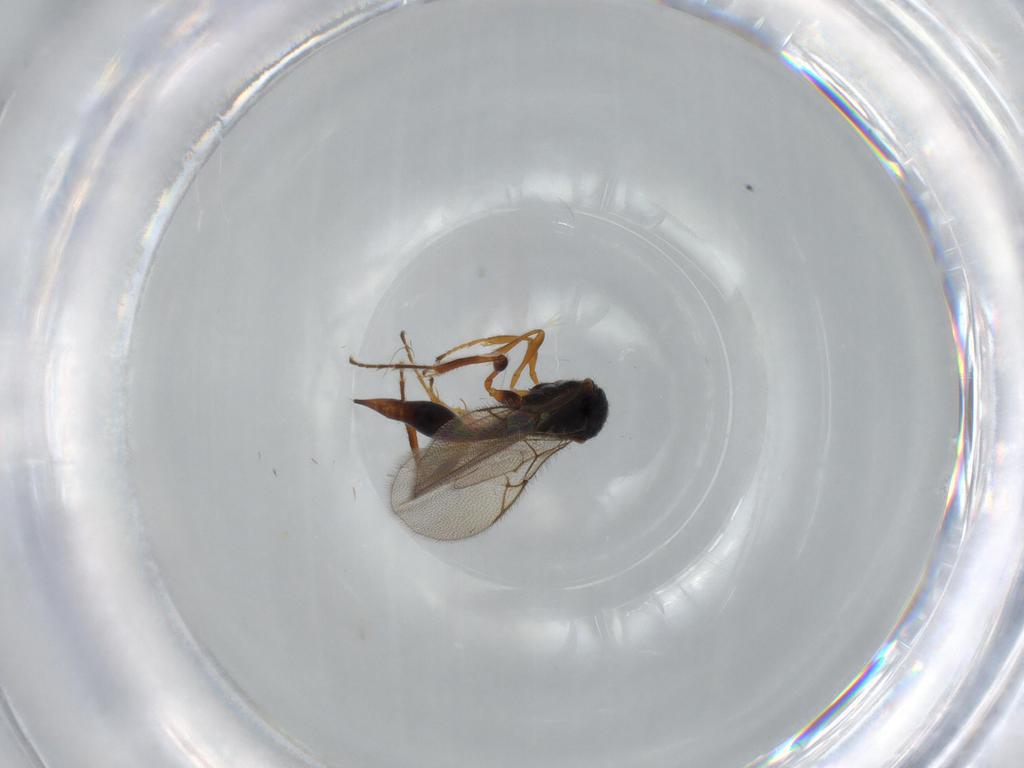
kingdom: Animalia
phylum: Arthropoda
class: Insecta
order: Hymenoptera
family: Diapriidae
